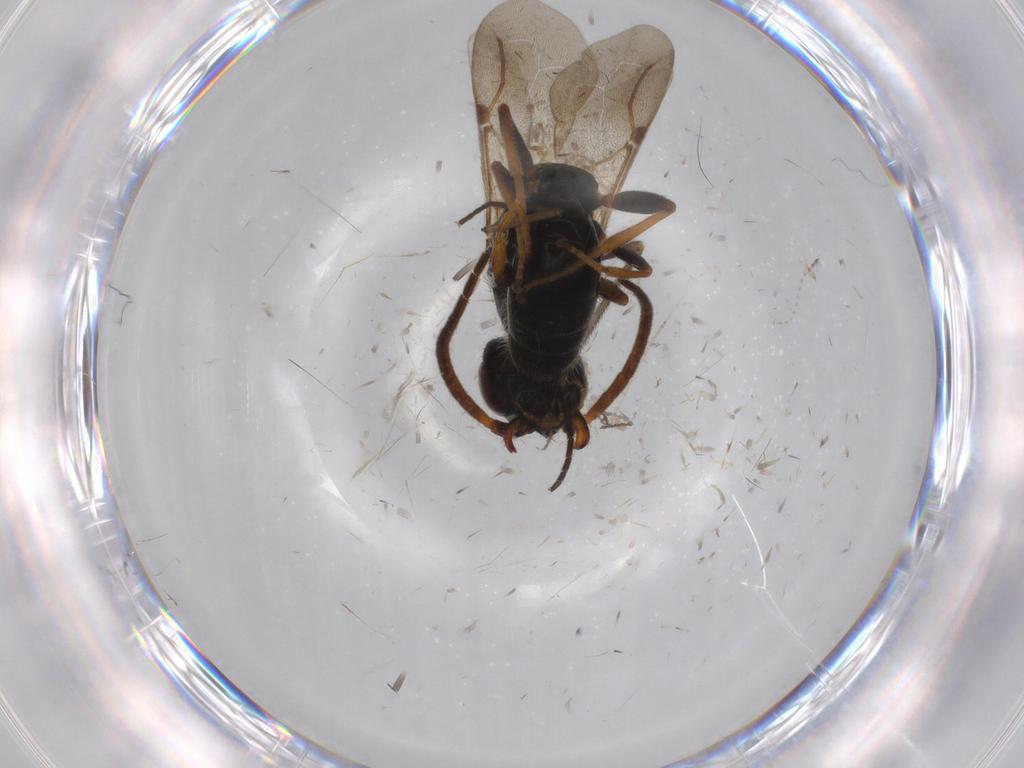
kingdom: Animalia
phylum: Arthropoda
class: Insecta
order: Hymenoptera
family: Bethylidae
